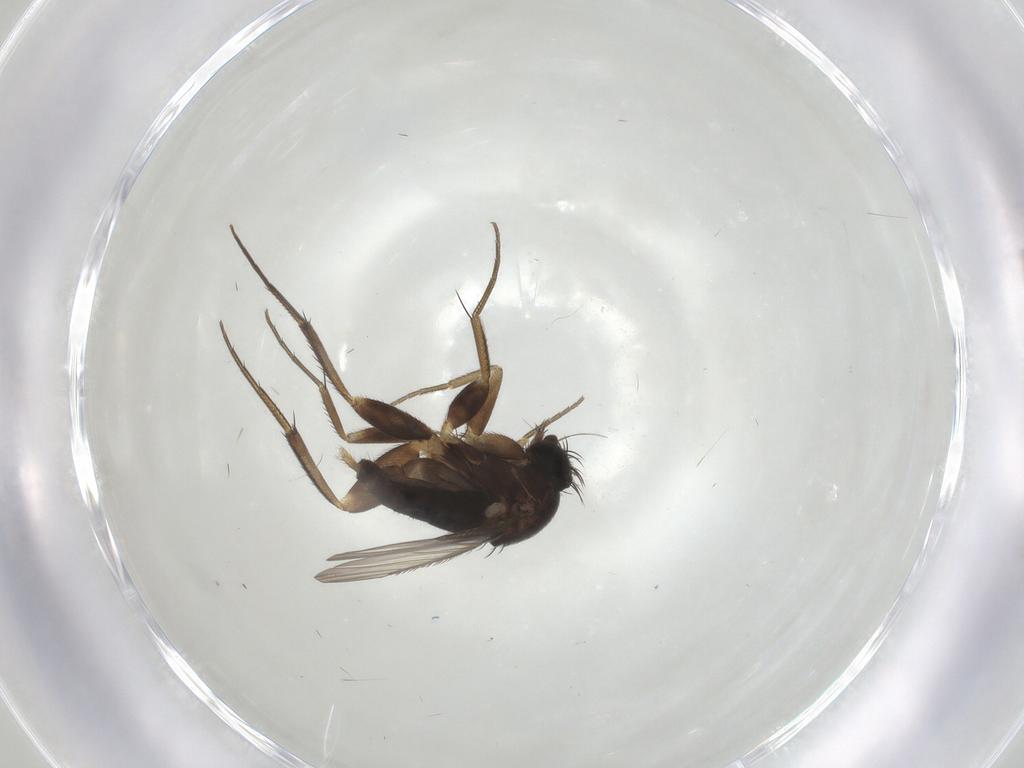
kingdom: Animalia
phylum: Arthropoda
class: Insecta
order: Diptera
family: Phoridae
